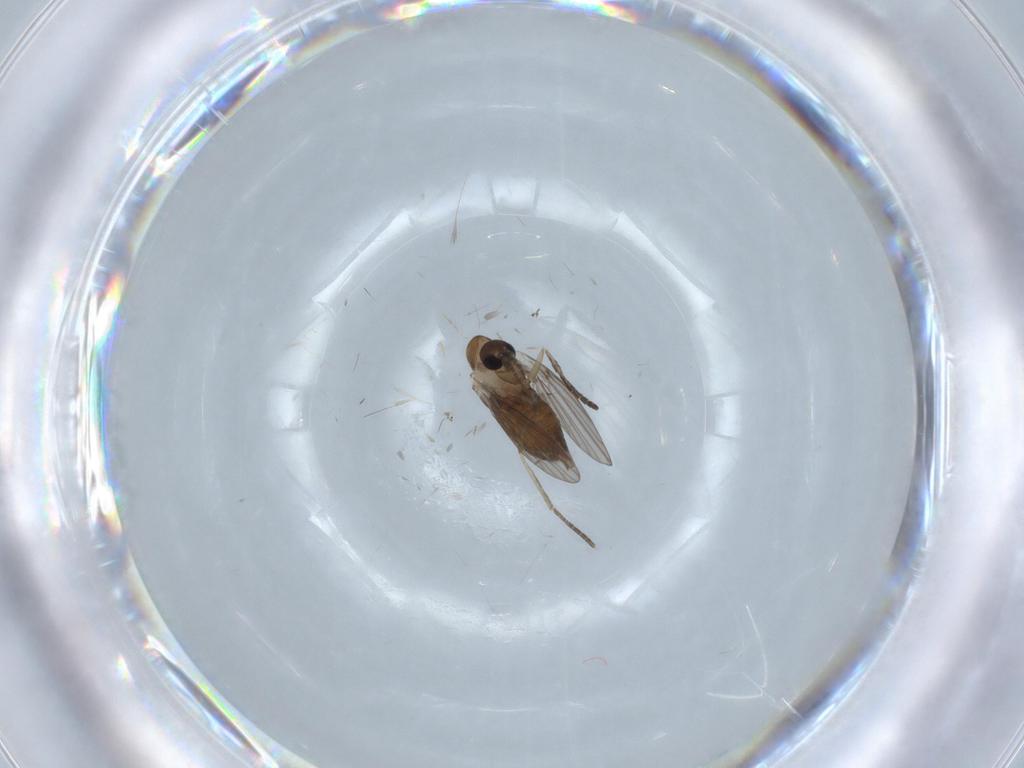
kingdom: Animalia
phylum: Arthropoda
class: Insecta
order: Diptera
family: Cecidomyiidae
